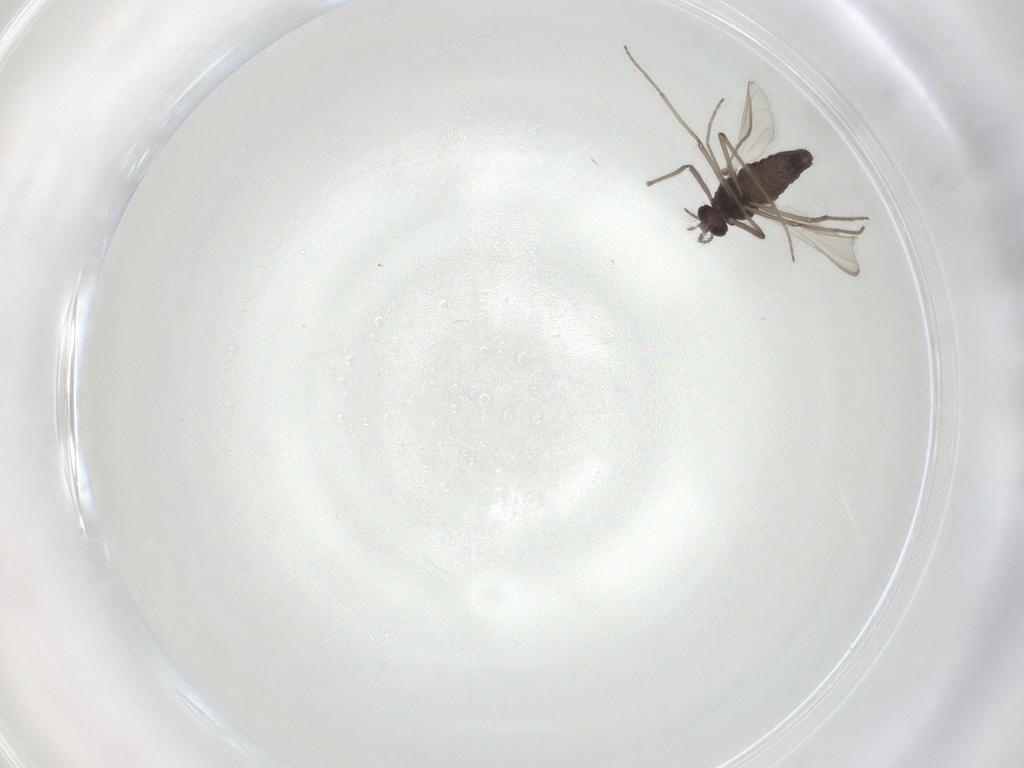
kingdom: Animalia
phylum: Arthropoda
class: Insecta
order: Diptera
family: Chironomidae
